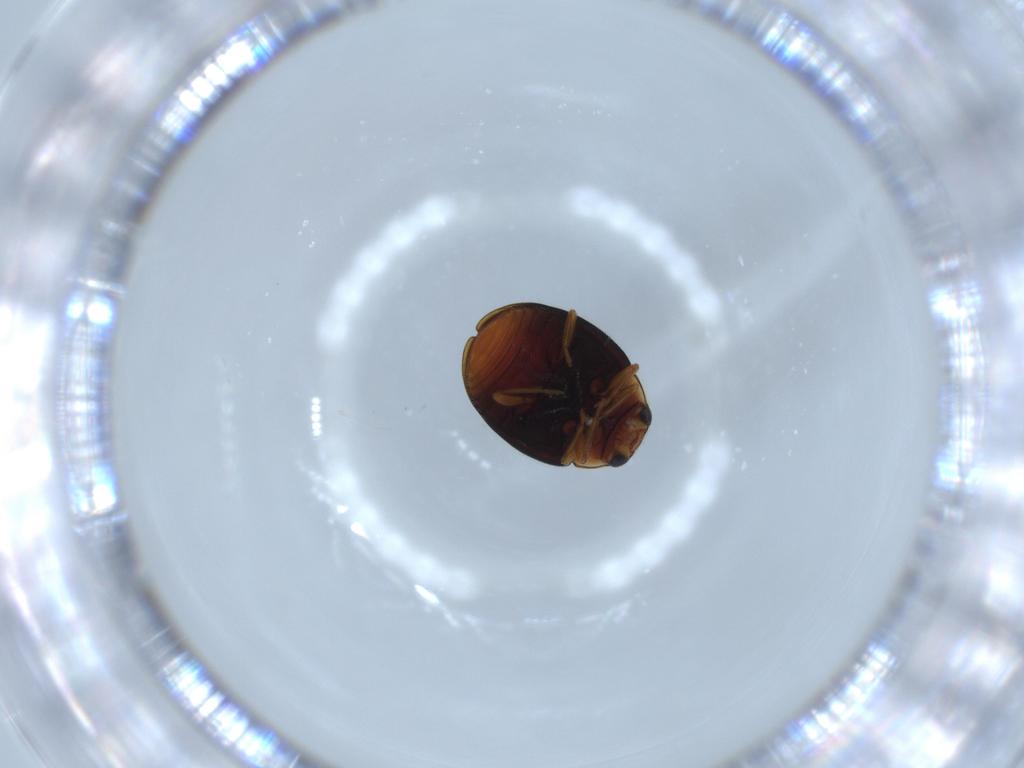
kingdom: Animalia
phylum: Arthropoda
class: Insecta
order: Coleoptera
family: Coccinellidae
